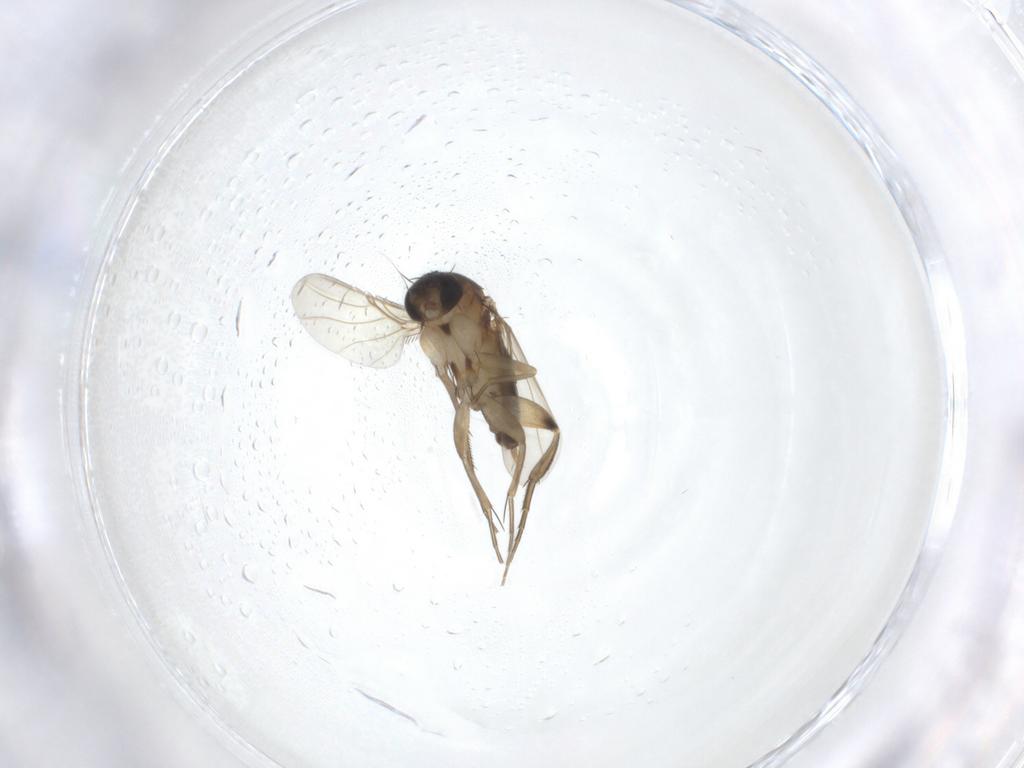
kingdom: Animalia
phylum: Arthropoda
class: Insecta
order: Diptera
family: Phoridae
